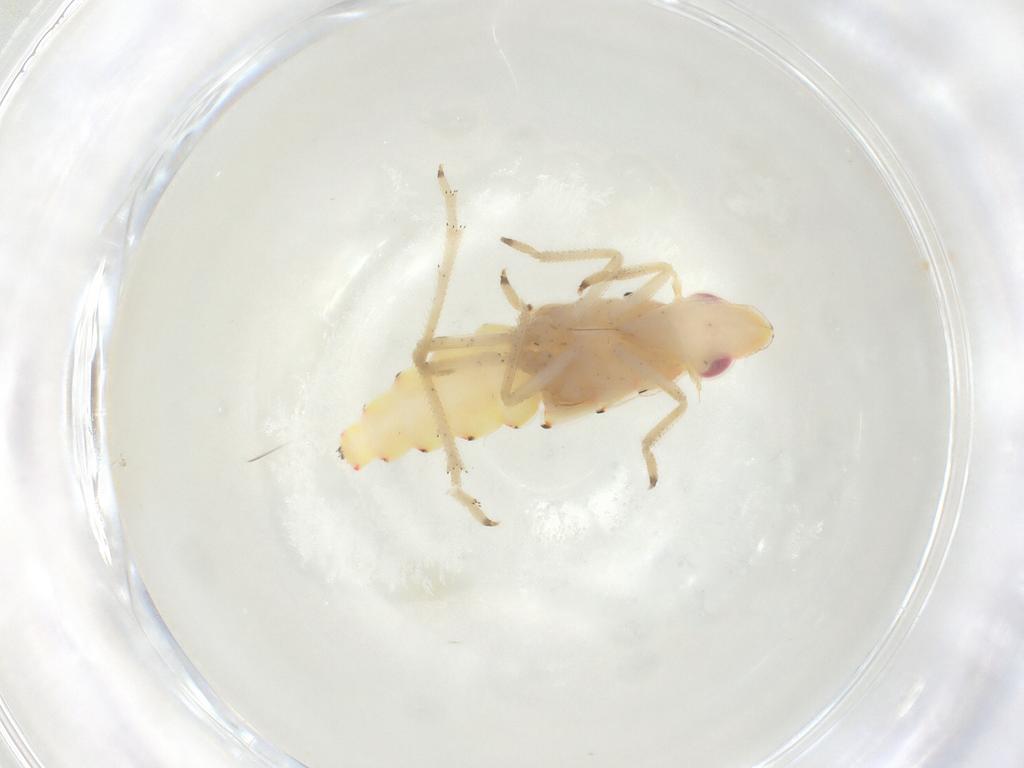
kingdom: Animalia
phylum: Arthropoda
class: Insecta
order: Hemiptera
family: Tropiduchidae
